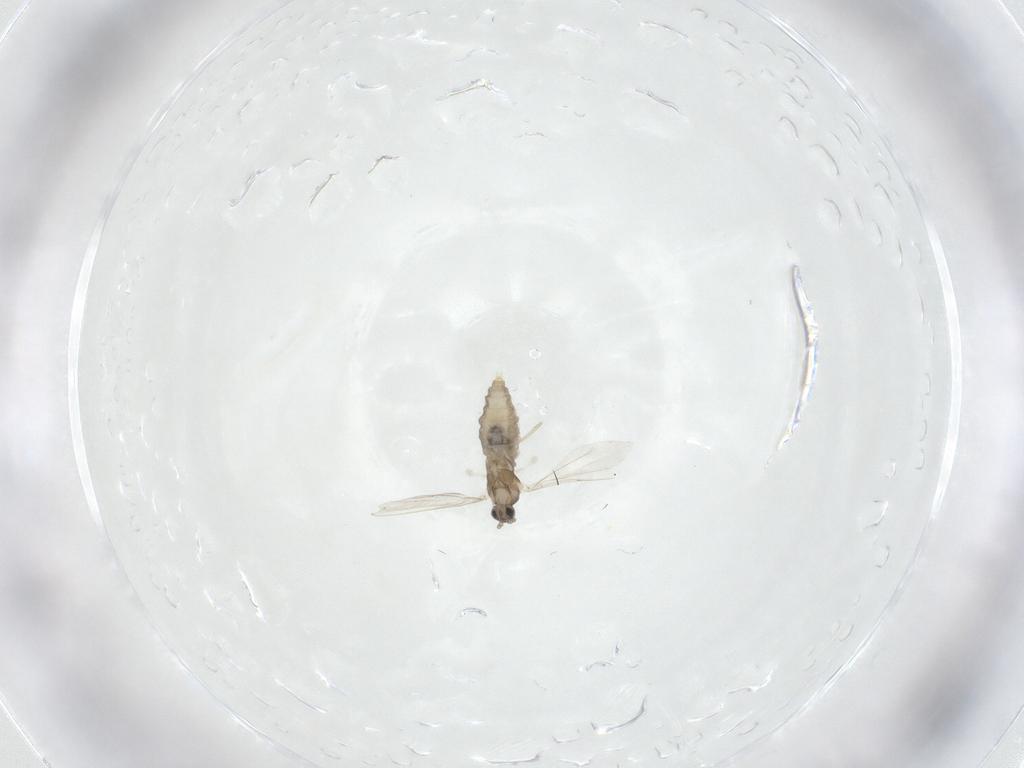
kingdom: Animalia
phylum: Arthropoda
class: Insecta
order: Diptera
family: Cecidomyiidae
